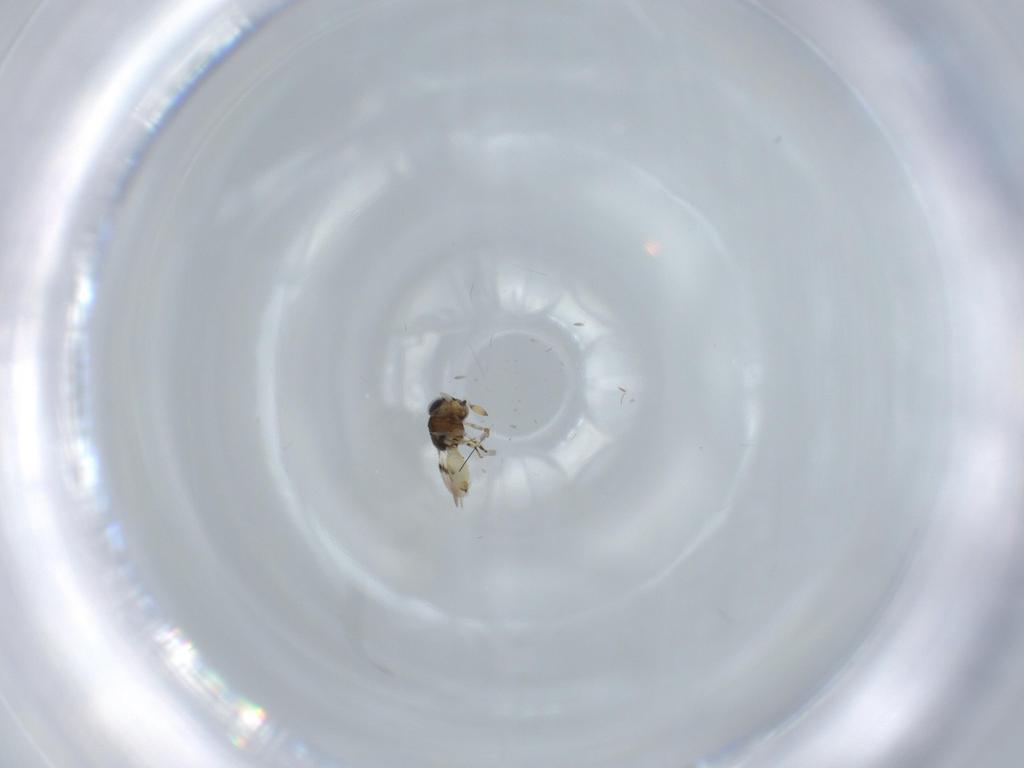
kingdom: Animalia
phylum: Arthropoda
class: Insecta
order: Hymenoptera
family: Scelionidae
